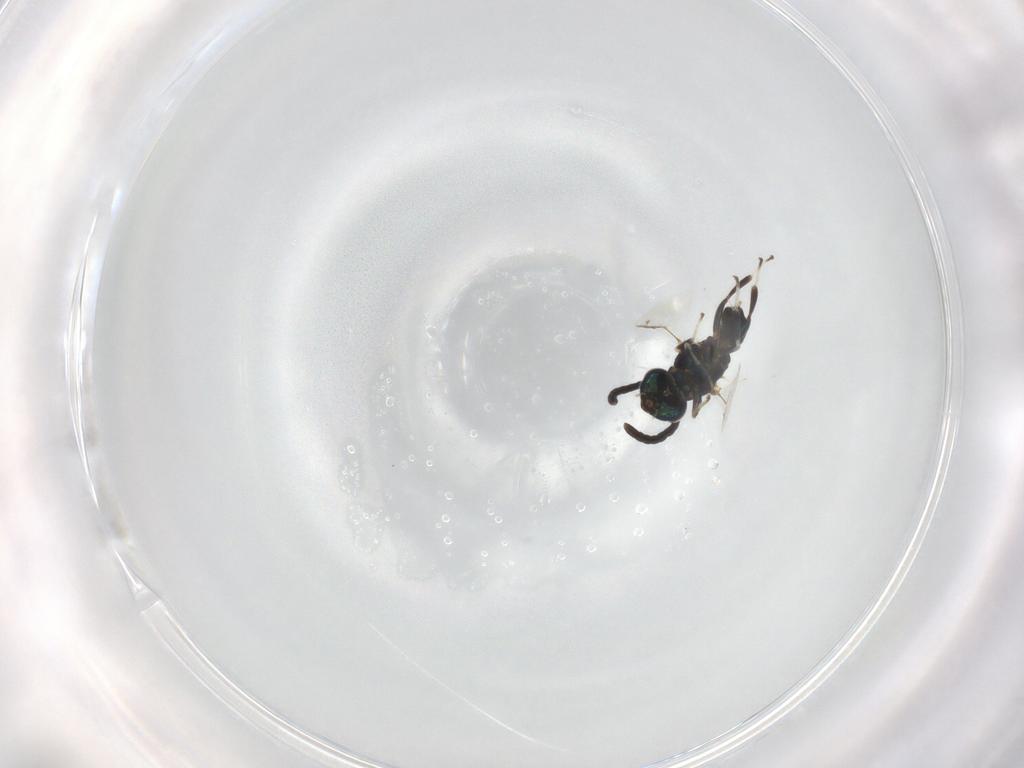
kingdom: Animalia
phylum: Arthropoda
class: Insecta
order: Hymenoptera
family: Eupelmidae
